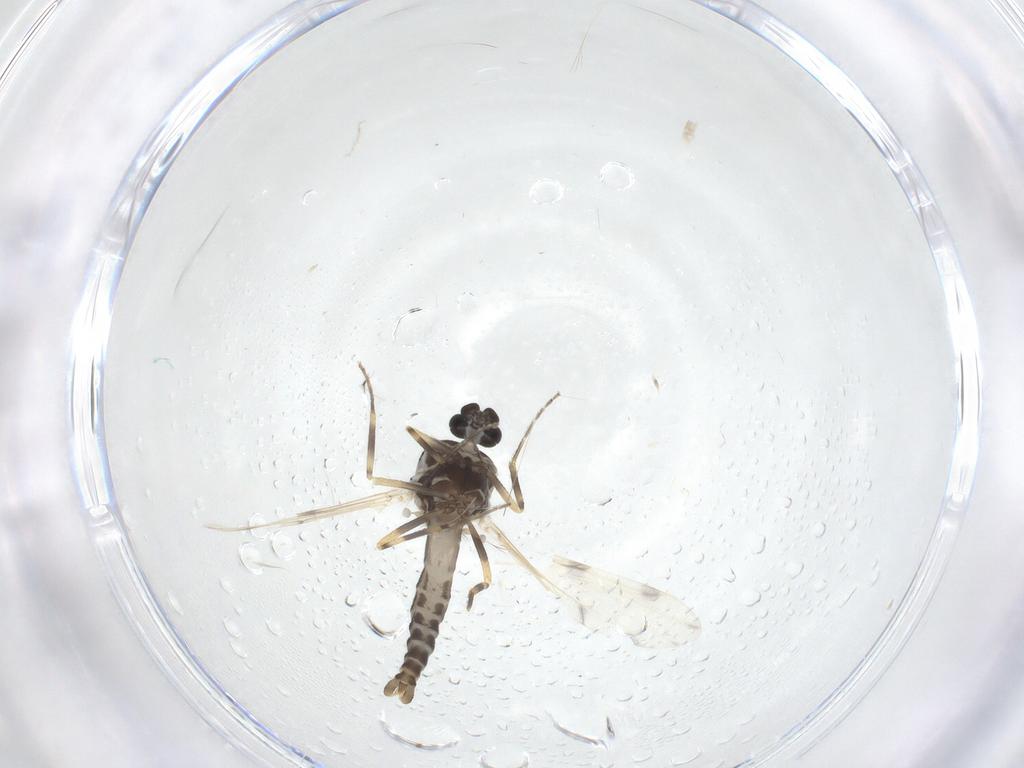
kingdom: Animalia
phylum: Arthropoda
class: Insecta
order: Diptera
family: Ceratopogonidae
